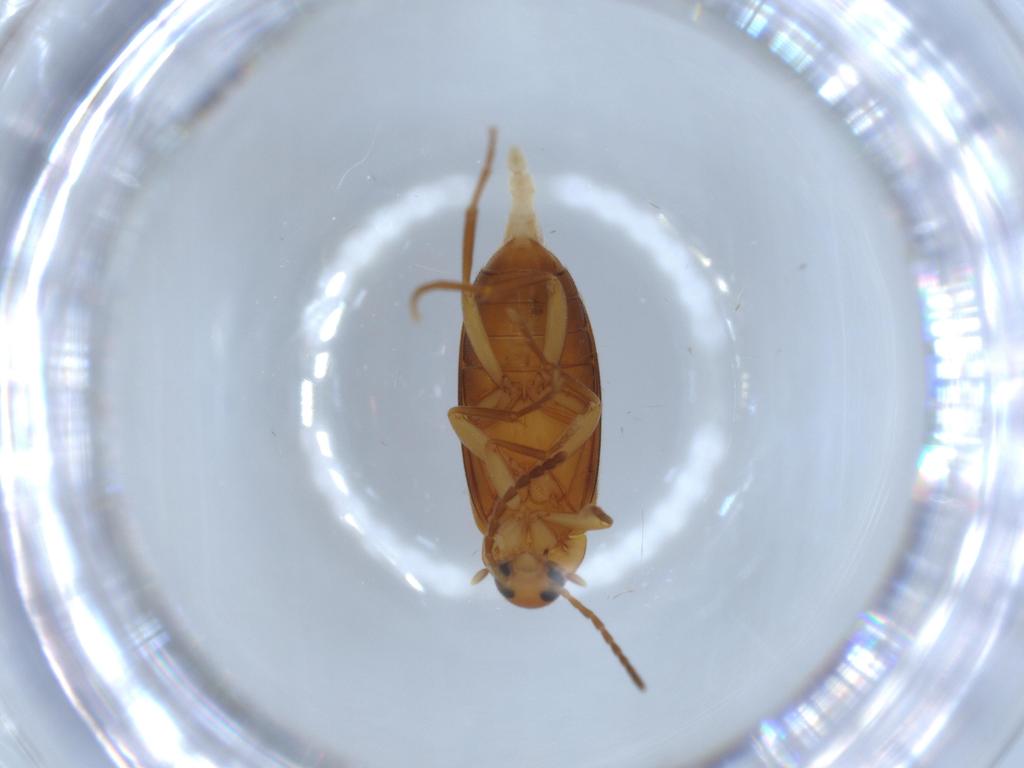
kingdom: Animalia
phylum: Arthropoda
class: Insecta
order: Coleoptera
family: Scraptiidae
